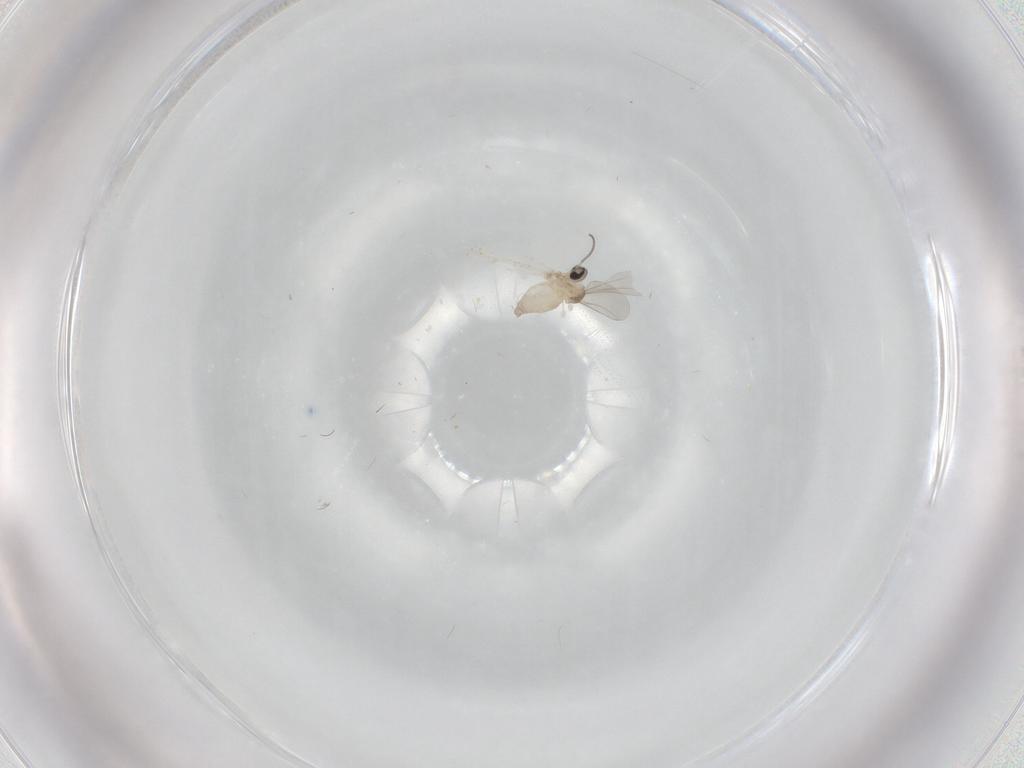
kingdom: Animalia
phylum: Arthropoda
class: Insecta
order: Diptera
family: Cecidomyiidae
